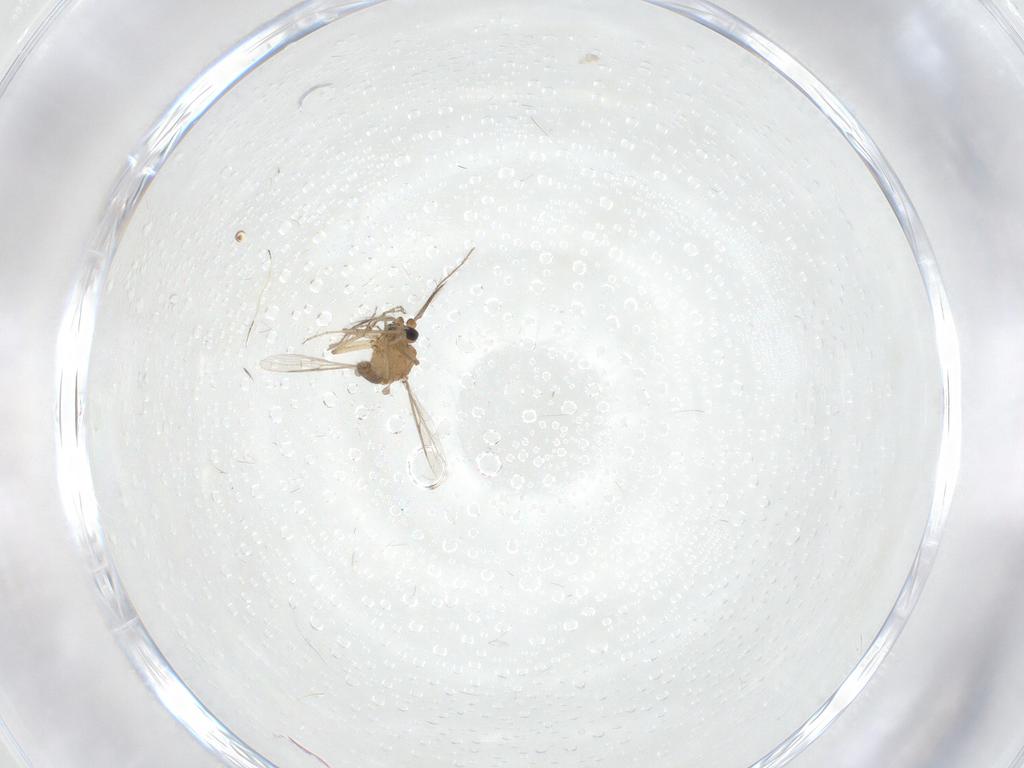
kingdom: Animalia
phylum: Arthropoda
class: Insecta
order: Diptera
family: Ceratopogonidae
